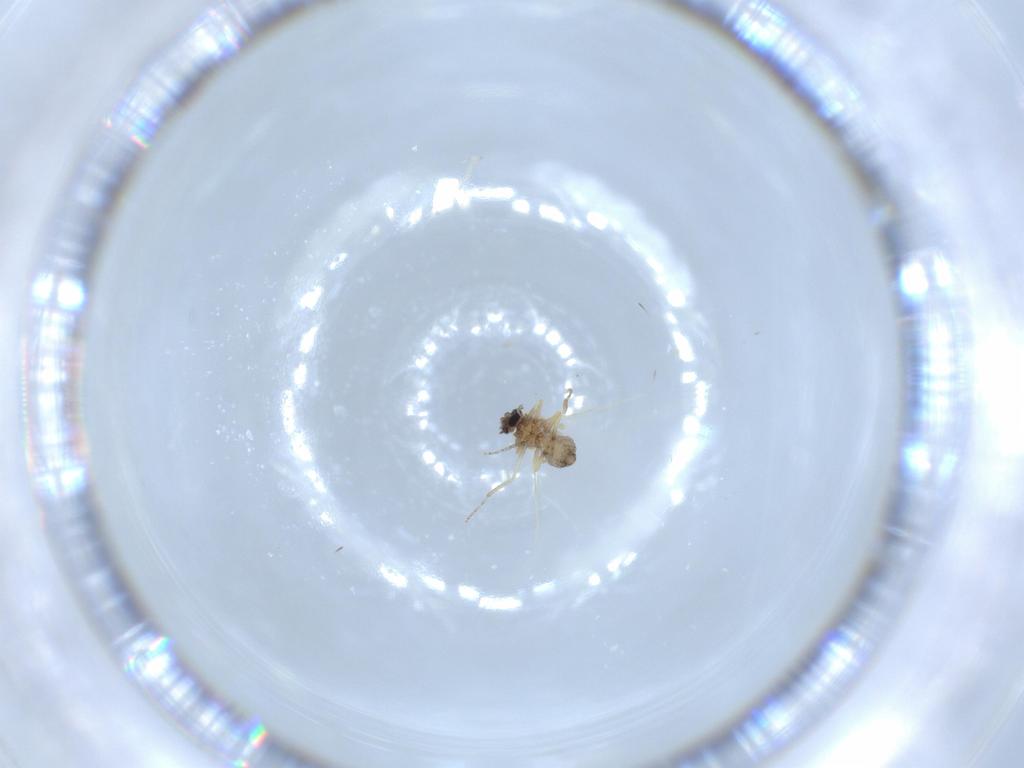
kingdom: Animalia
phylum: Arthropoda
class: Insecta
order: Diptera
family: Ceratopogonidae
